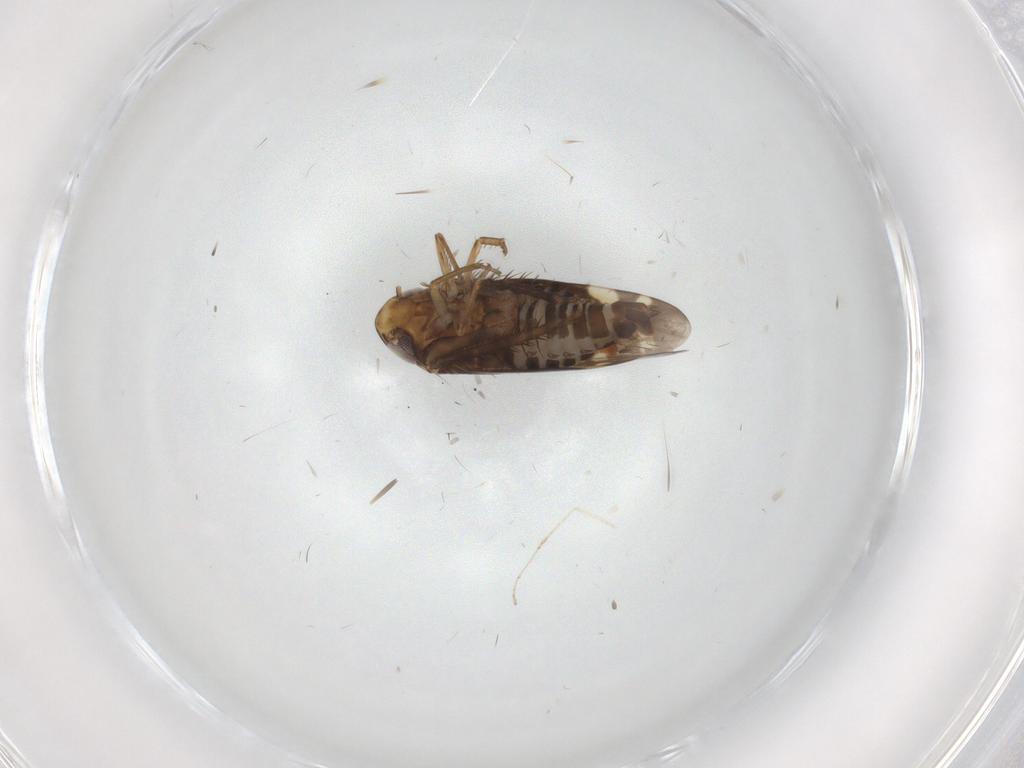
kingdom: Animalia
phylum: Arthropoda
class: Insecta
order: Hemiptera
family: Cicadellidae
